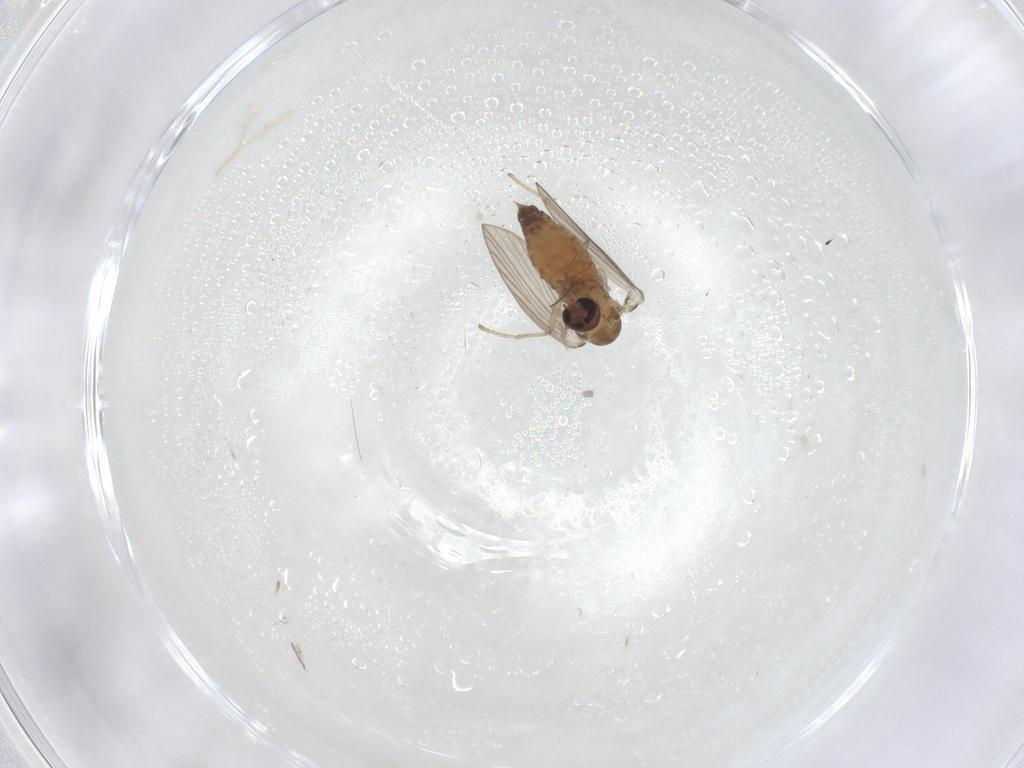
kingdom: Animalia
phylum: Arthropoda
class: Insecta
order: Diptera
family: Psychodidae
